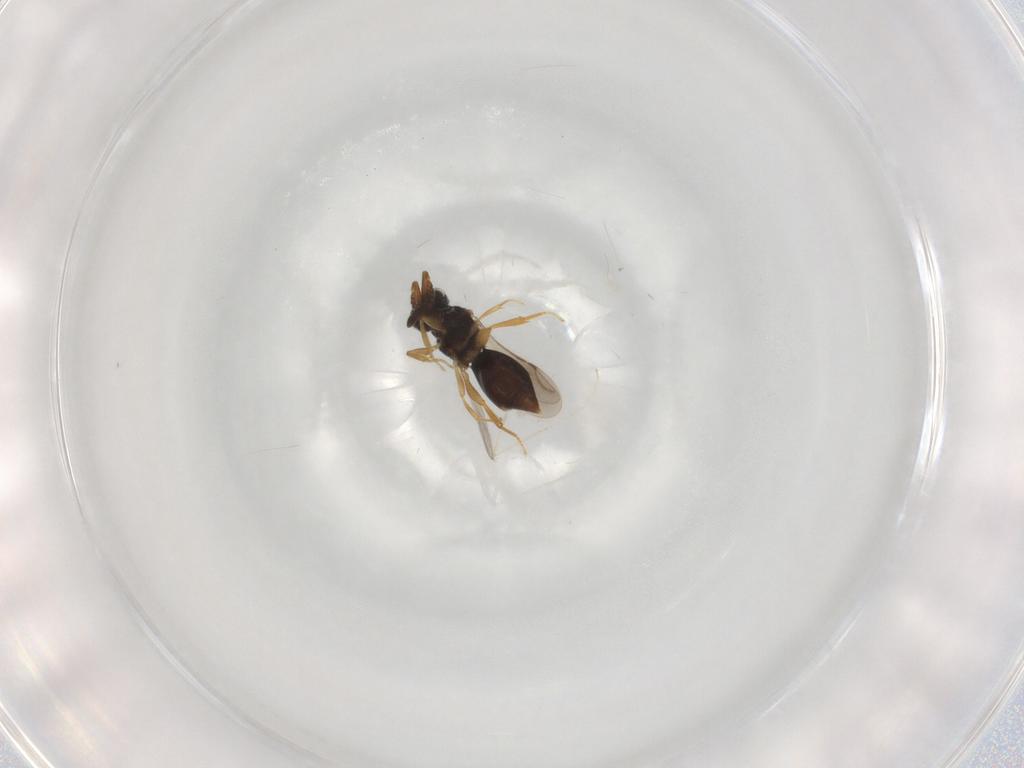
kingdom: Animalia
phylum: Arthropoda
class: Insecta
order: Hymenoptera
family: Ceraphronidae
